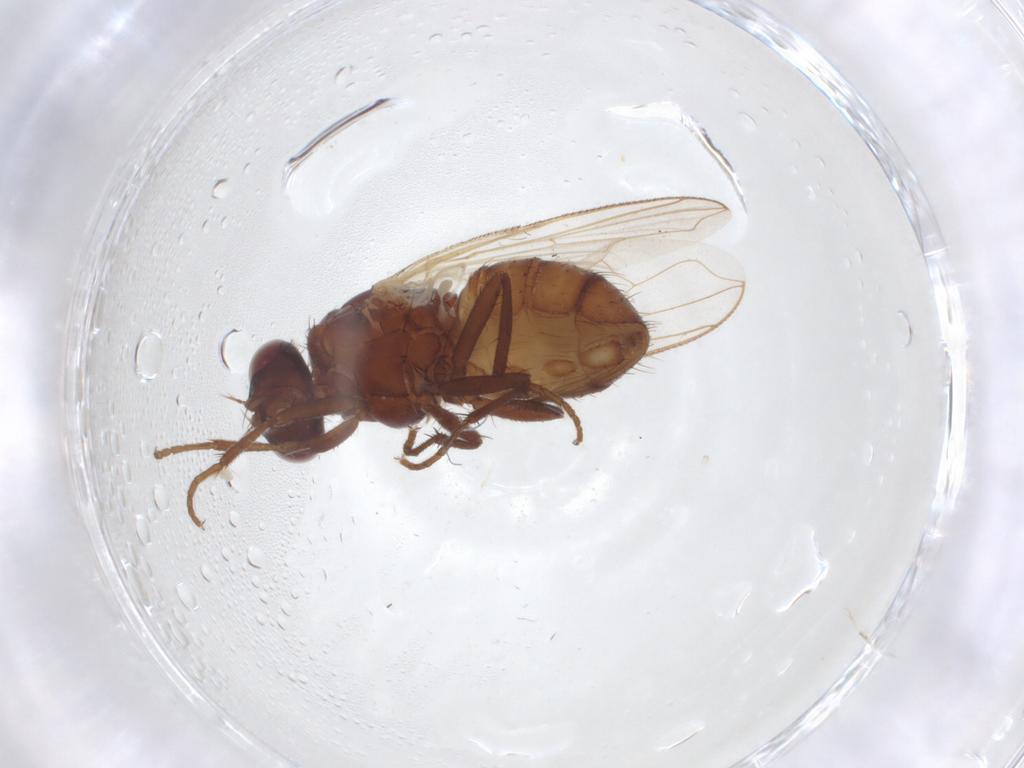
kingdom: Animalia
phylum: Arthropoda
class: Insecta
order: Diptera
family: Muscidae
